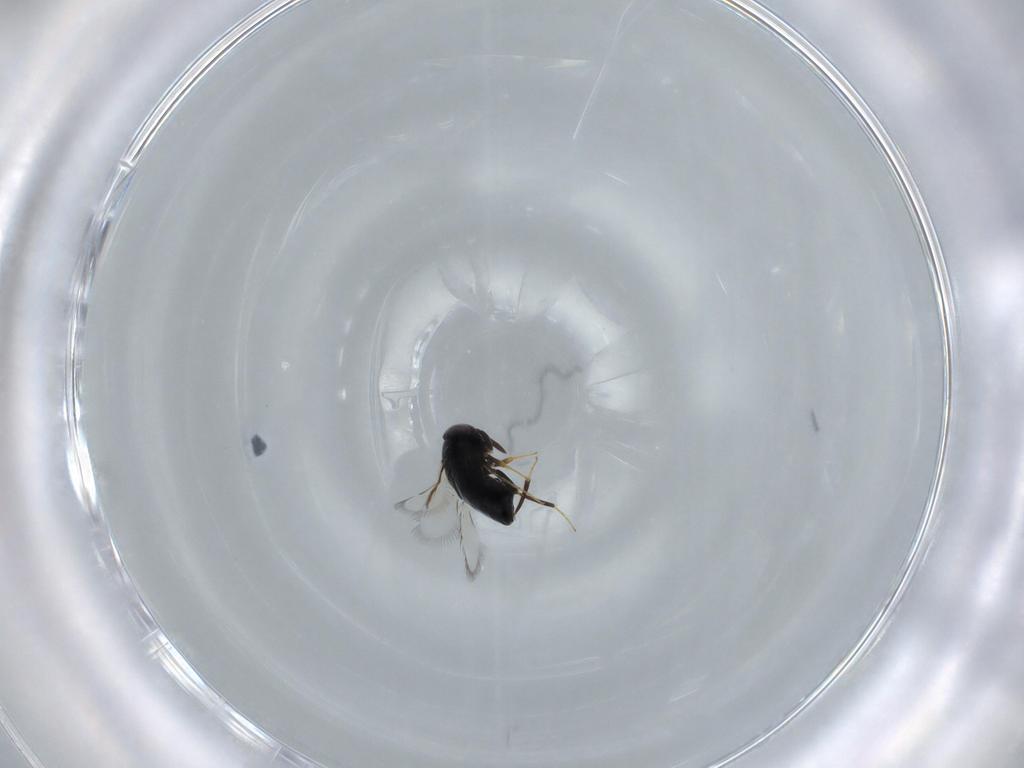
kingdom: Animalia
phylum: Arthropoda
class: Insecta
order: Hymenoptera
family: Signiphoridae
